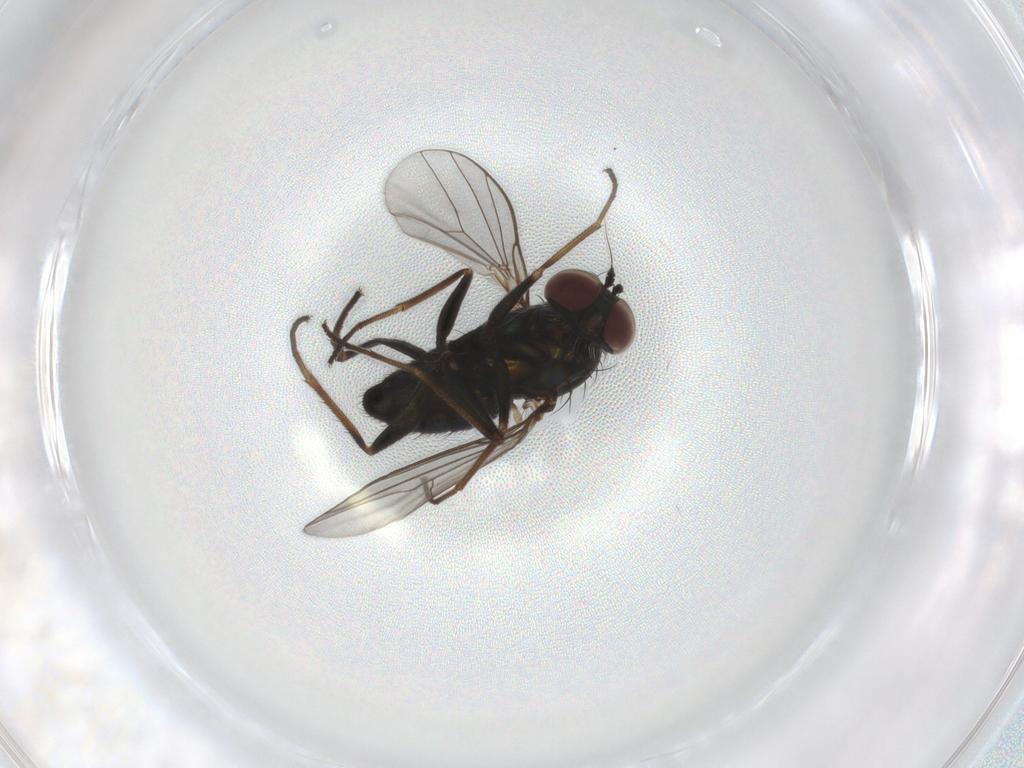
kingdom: Animalia
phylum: Arthropoda
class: Insecta
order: Diptera
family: Dolichopodidae
